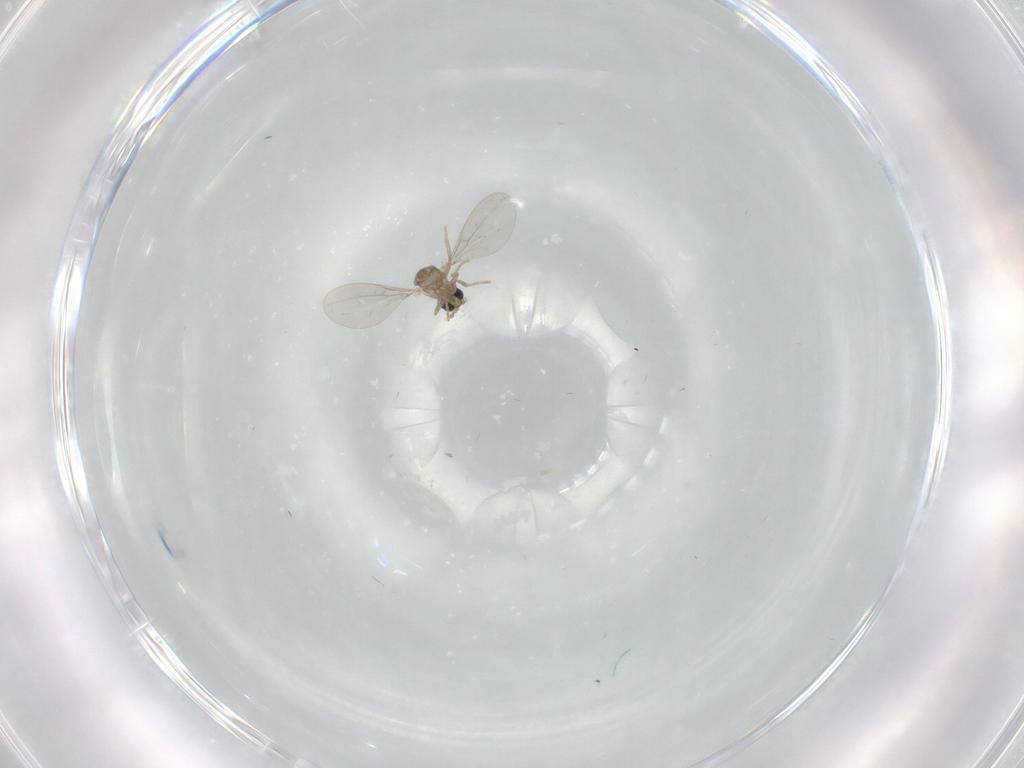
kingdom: Animalia
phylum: Arthropoda
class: Insecta
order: Diptera
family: Cecidomyiidae
